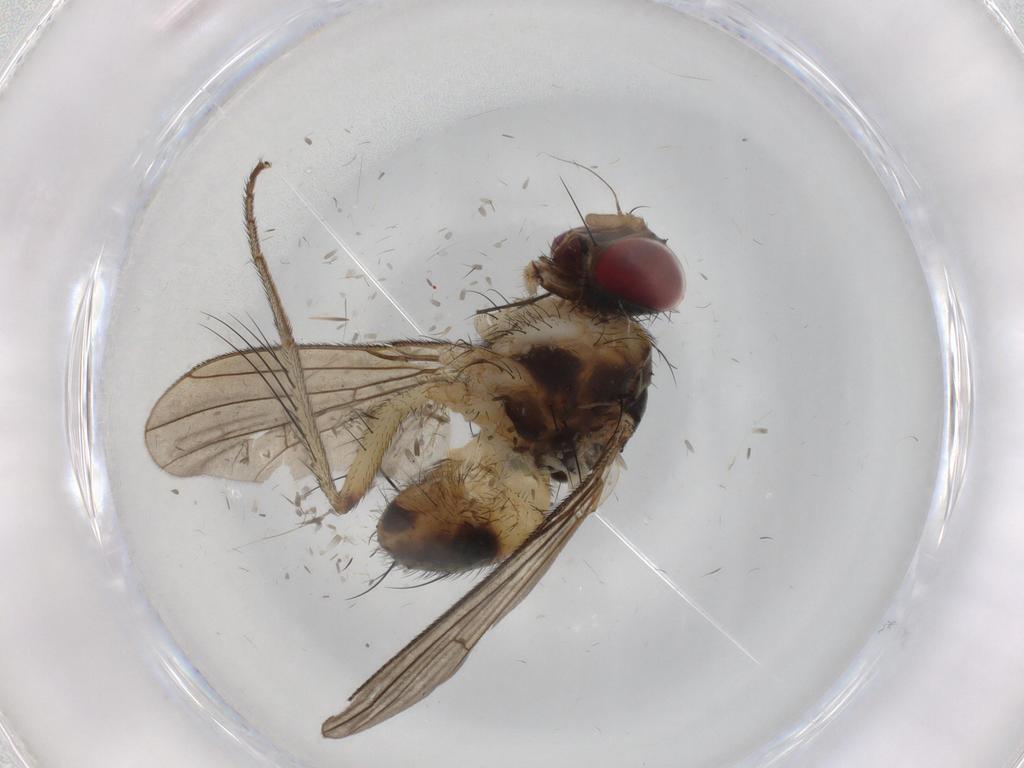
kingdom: Animalia
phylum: Arthropoda
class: Insecta
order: Diptera
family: Muscidae
